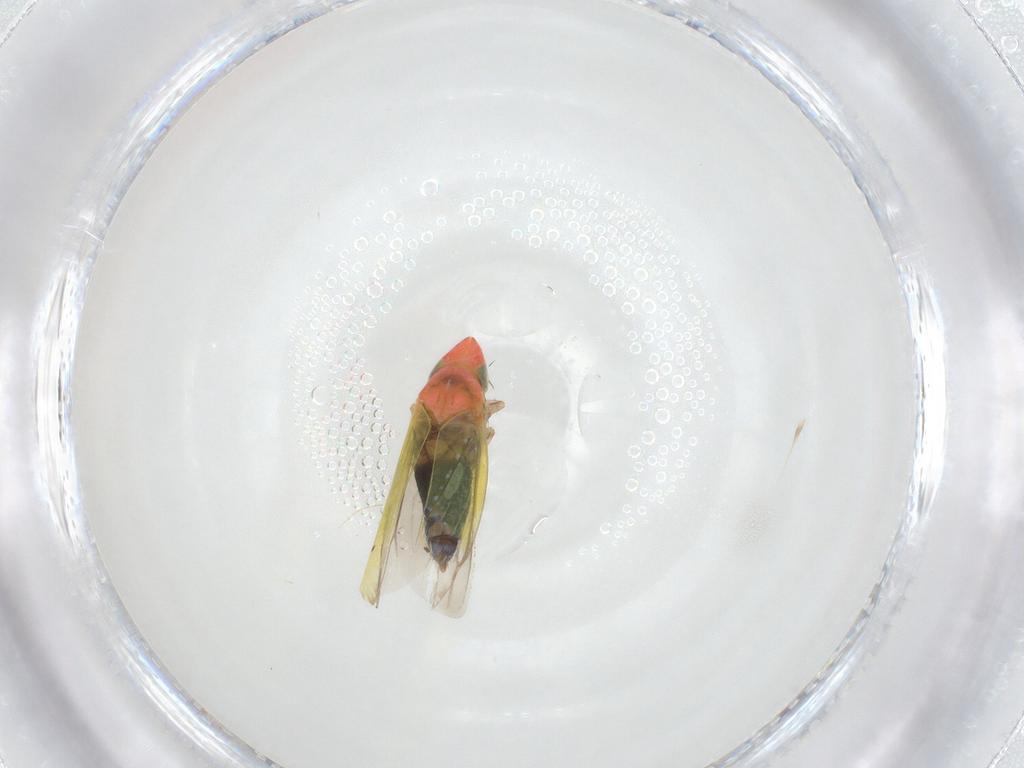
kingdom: Animalia
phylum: Arthropoda
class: Insecta
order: Hemiptera
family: Cicadellidae
